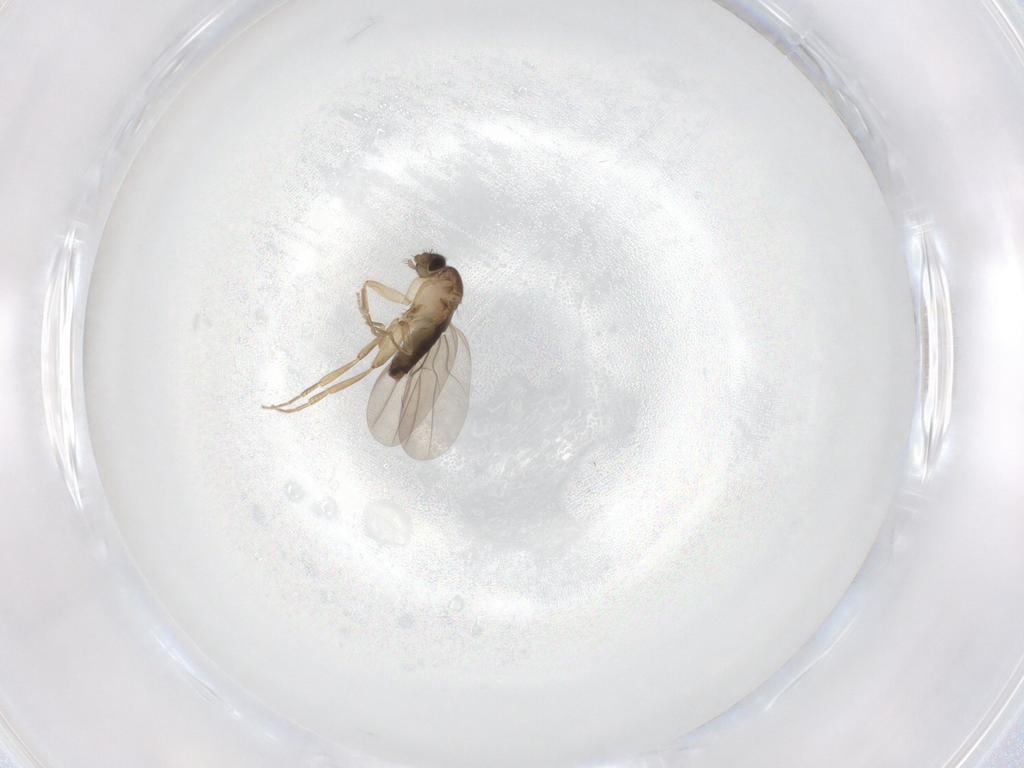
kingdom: Animalia
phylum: Arthropoda
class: Insecta
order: Diptera
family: Phoridae
